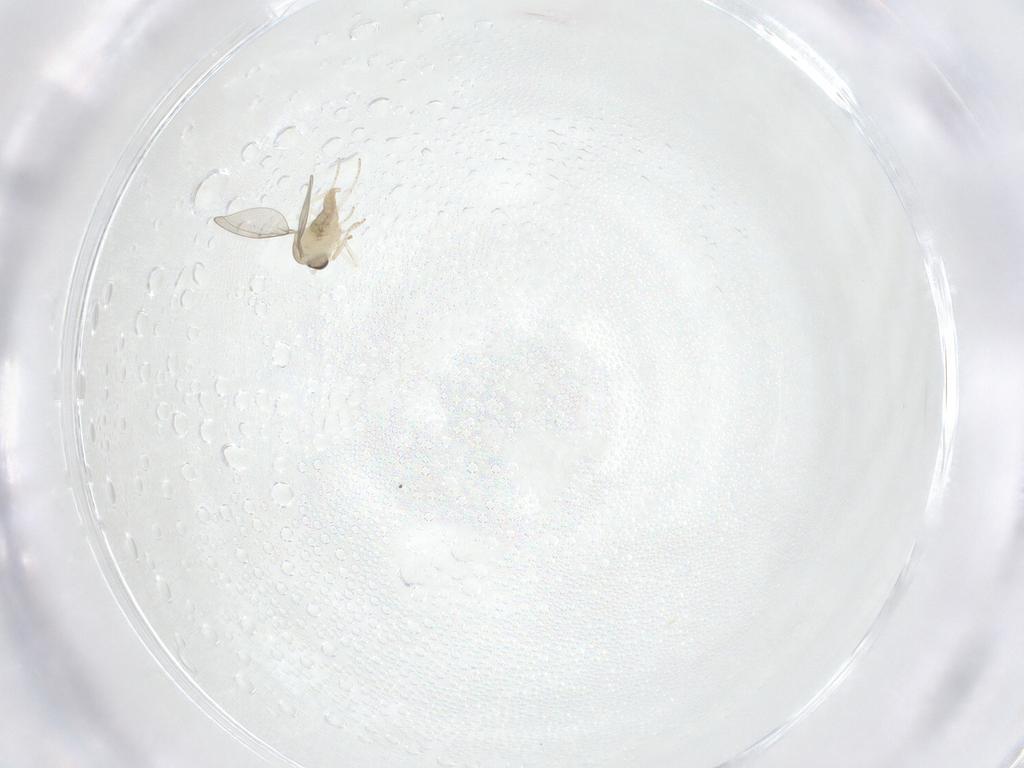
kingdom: Animalia
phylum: Arthropoda
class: Insecta
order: Diptera
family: Cecidomyiidae
